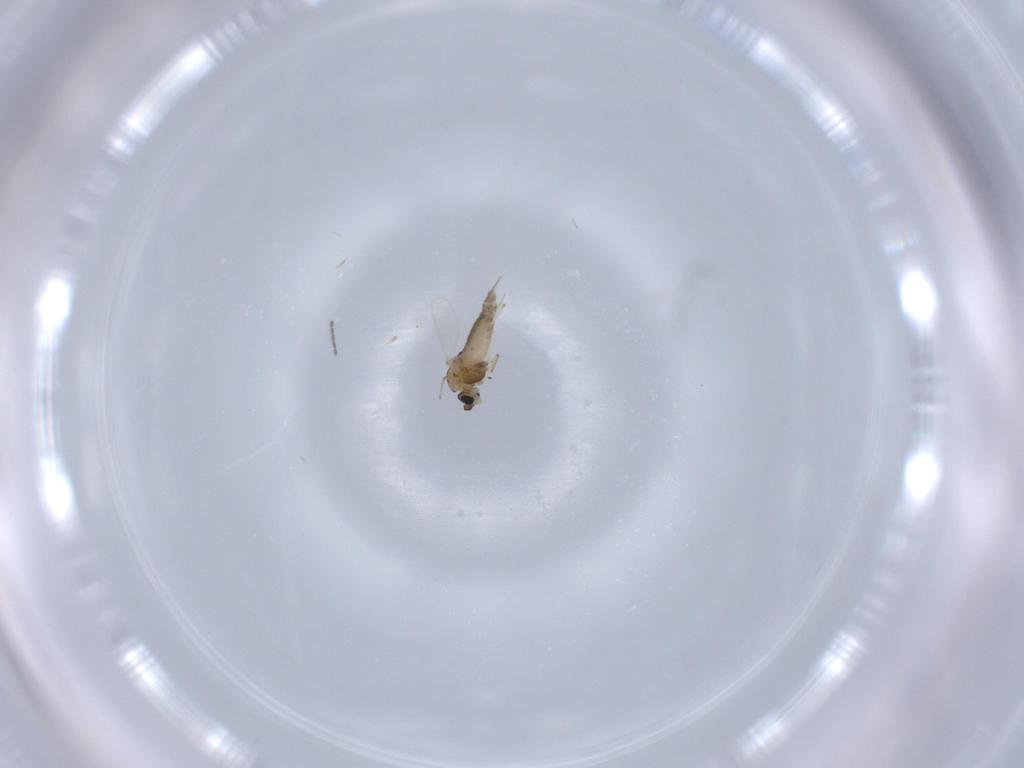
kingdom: Animalia
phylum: Arthropoda
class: Insecta
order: Diptera
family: Chironomidae
